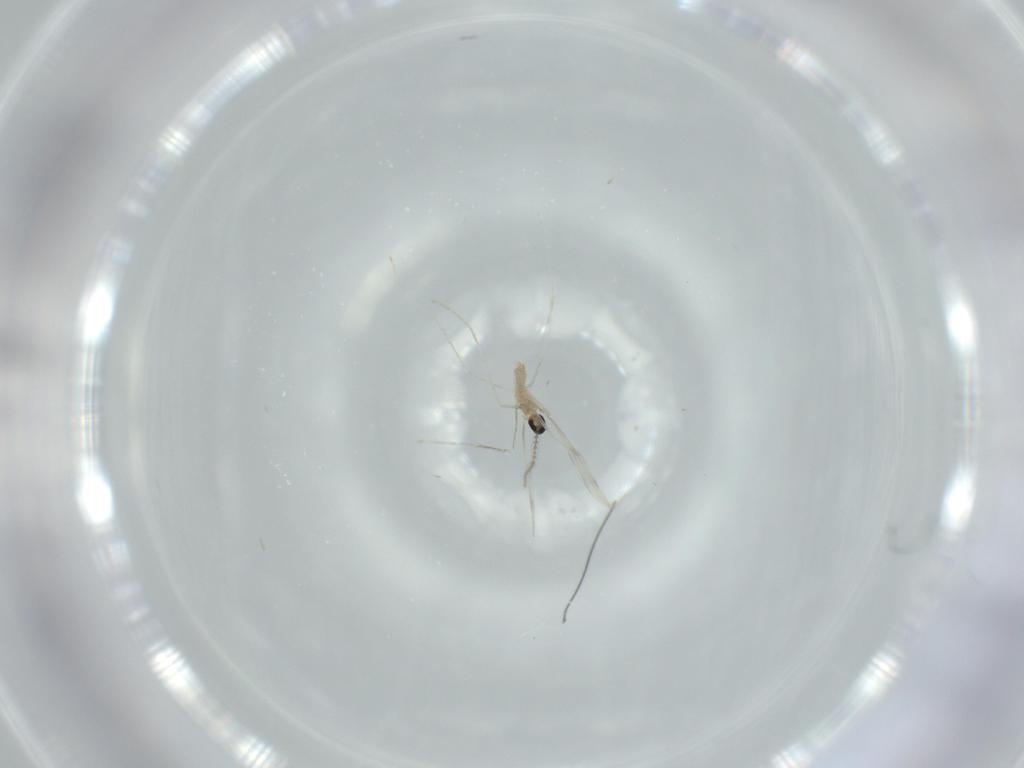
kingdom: Animalia
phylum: Arthropoda
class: Insecta
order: Diptera
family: Cecidomyiidae
